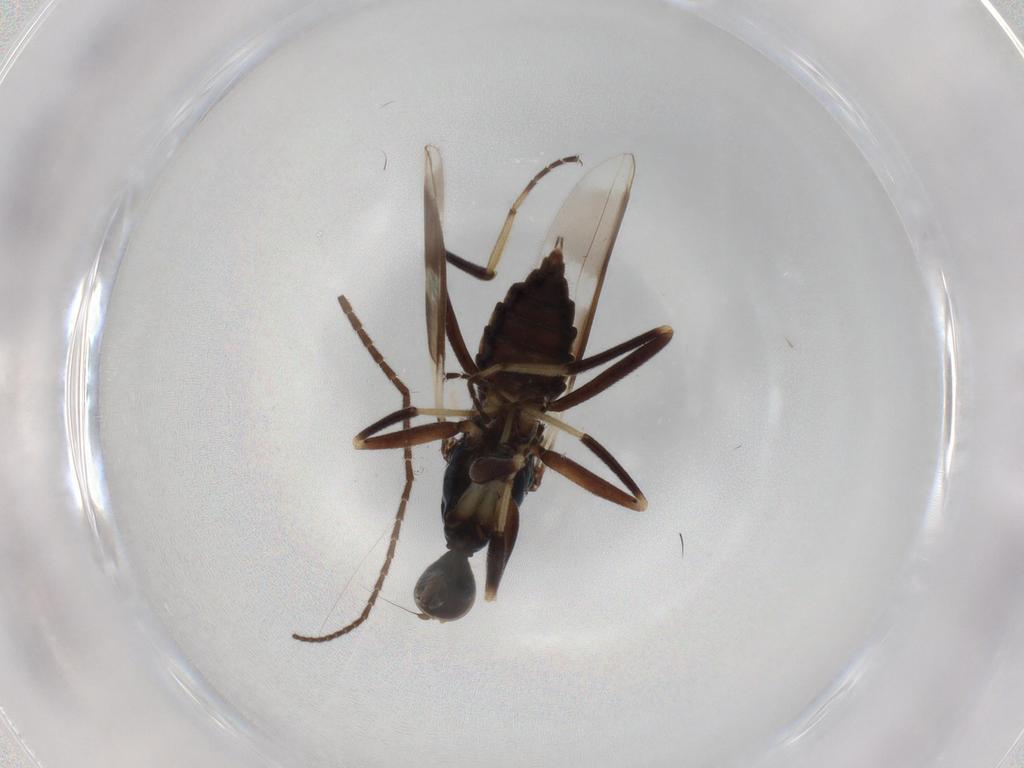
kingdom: Animalia
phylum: Arthropoda
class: Insecta
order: Diptera
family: Hybotidae
